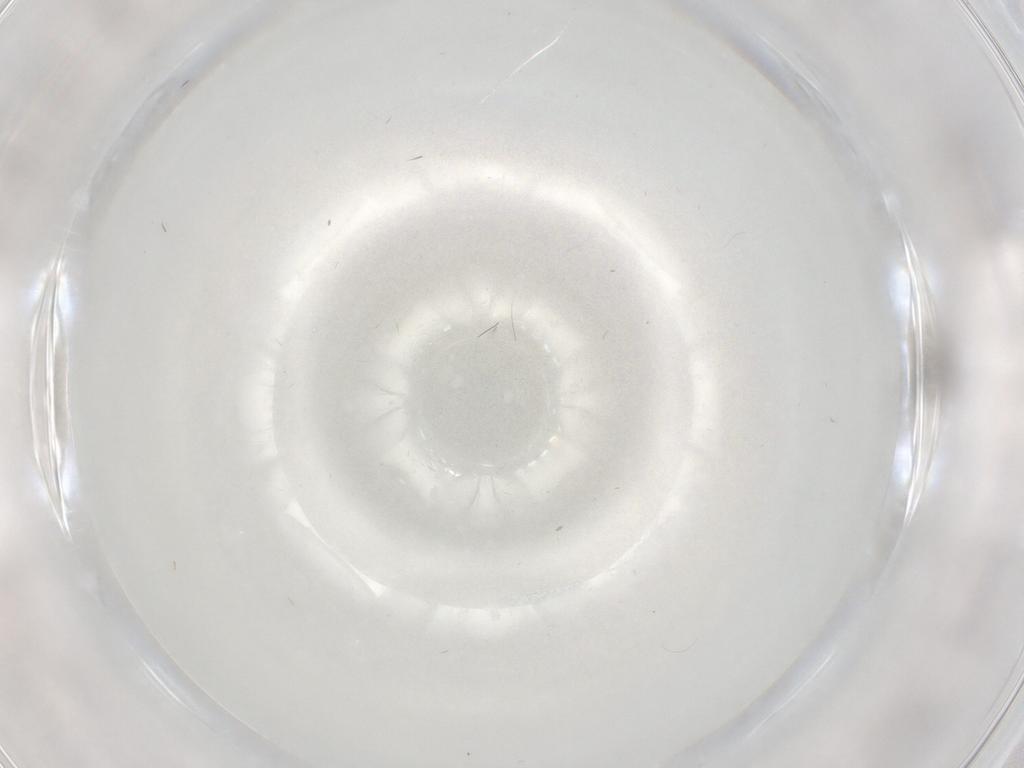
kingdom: Animalia
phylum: Arthropoda
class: Insecta
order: Diptera
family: Cecidomyiidae
